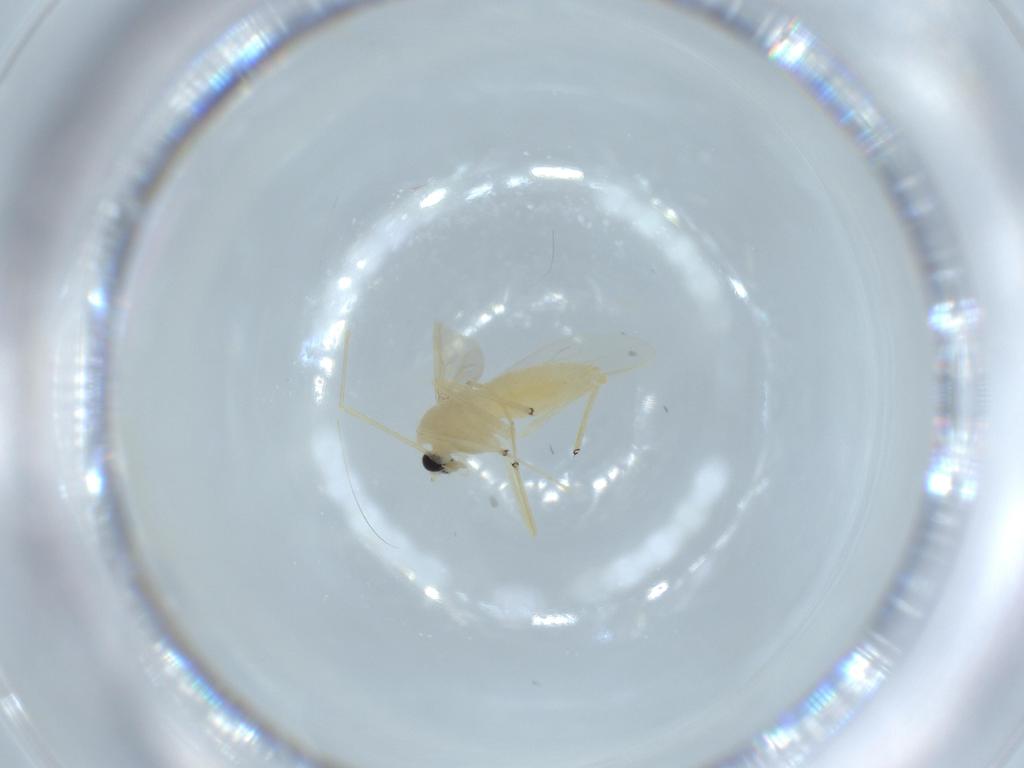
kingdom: Animalia
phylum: Arthropoda
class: Insecta
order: Diptera
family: Chironomidae
